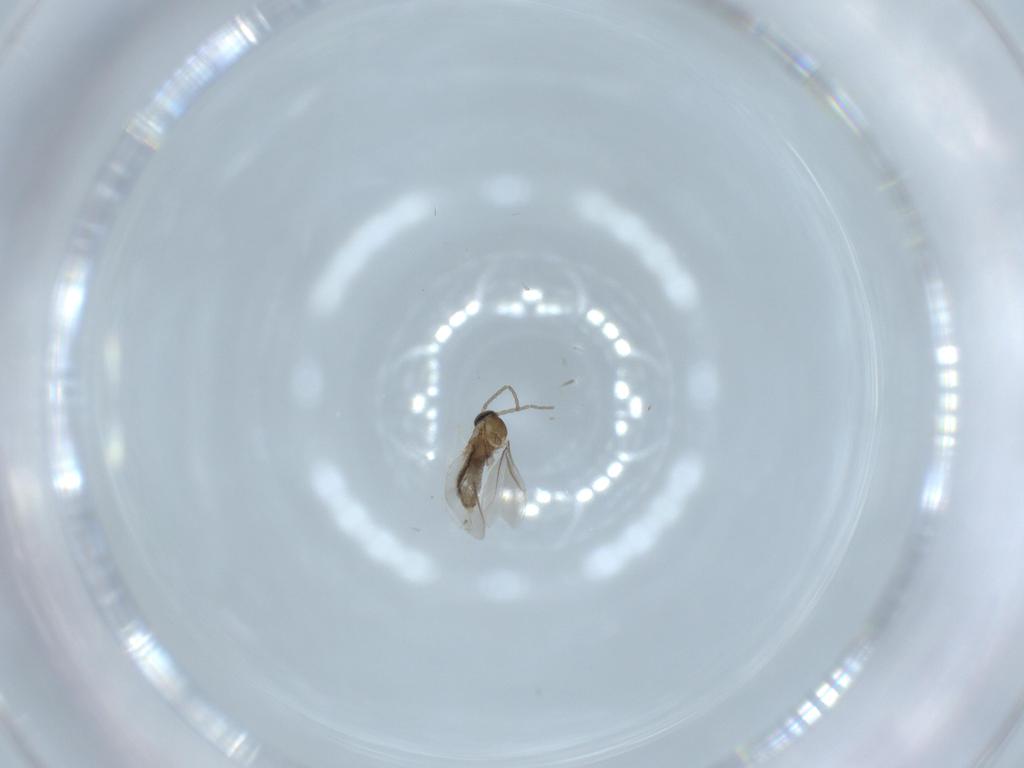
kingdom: Animalia
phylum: Arthropoda
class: Insecta
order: Diptera
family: Cecidomyiidae
